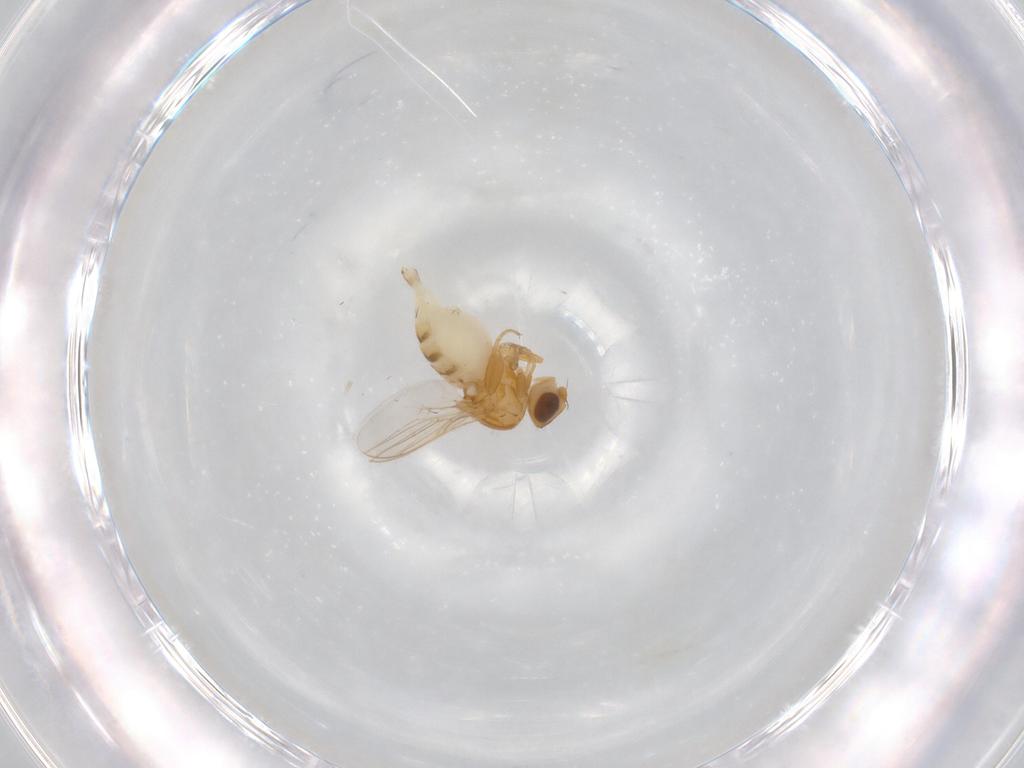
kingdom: Animalia
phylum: Arthropoda
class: Insecta
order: Diptera
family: Chloropidae
